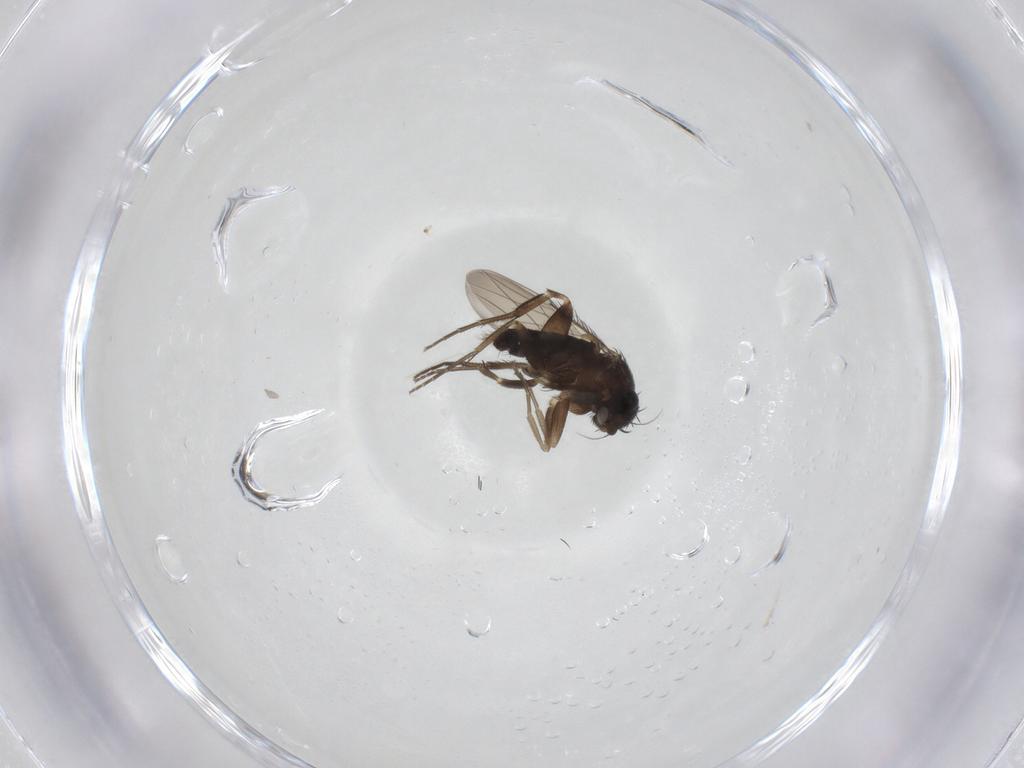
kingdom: Animalia
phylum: Arthropoda
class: Insecta
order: Diptera
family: Phoridae
